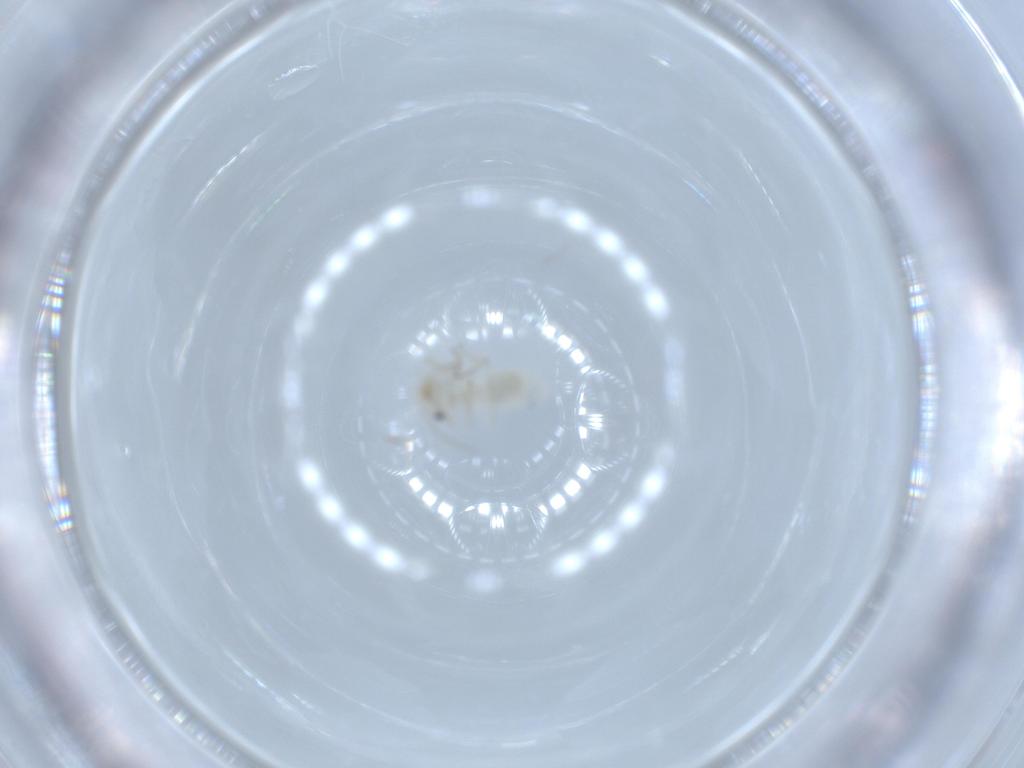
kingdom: Animalia
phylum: Arthropoda
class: Insecta
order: Psocodea
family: Caeciliusidae
